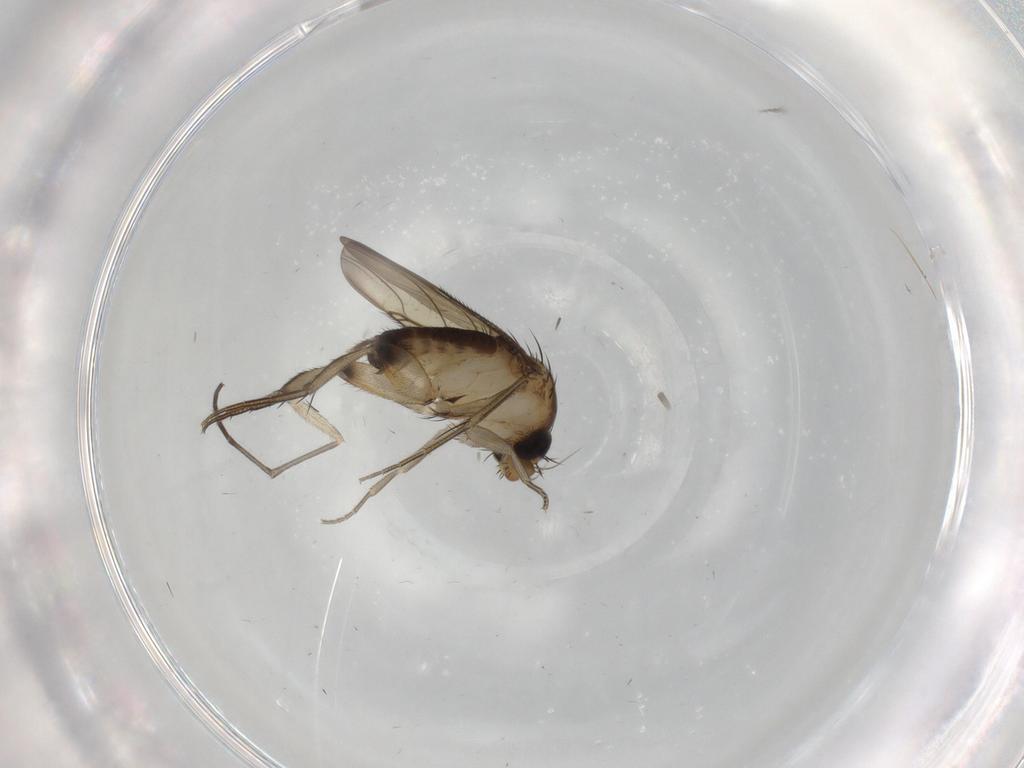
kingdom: Animalia
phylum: Arthropoda
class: Insecta
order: Diptera
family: Phoridae
